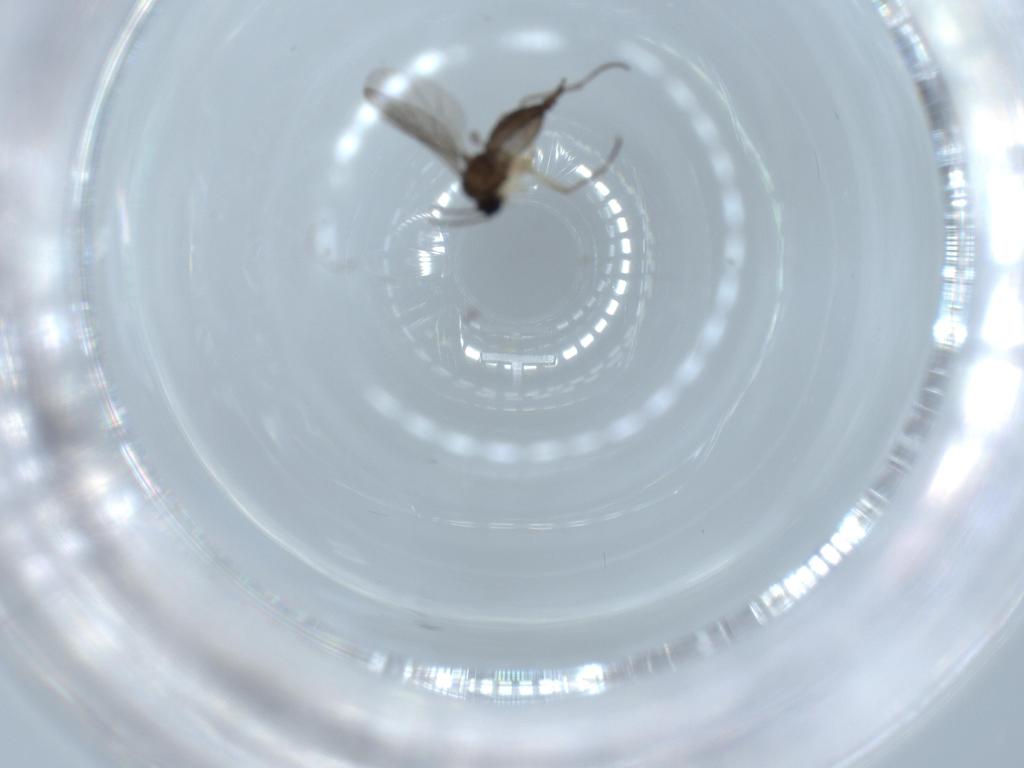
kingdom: Animalia
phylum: Arthropoda
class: Insecta
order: Diptera
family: Sciaridae
